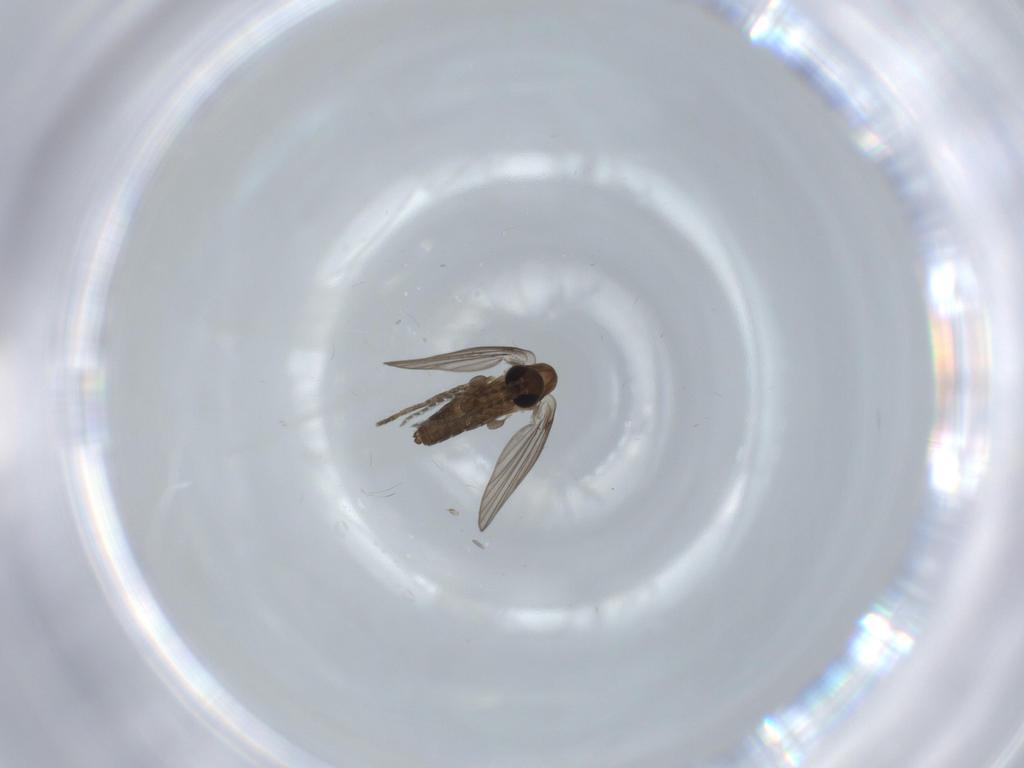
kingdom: Animalia
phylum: Arthropoda
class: Insecta
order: Diptera
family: Psychodidae
